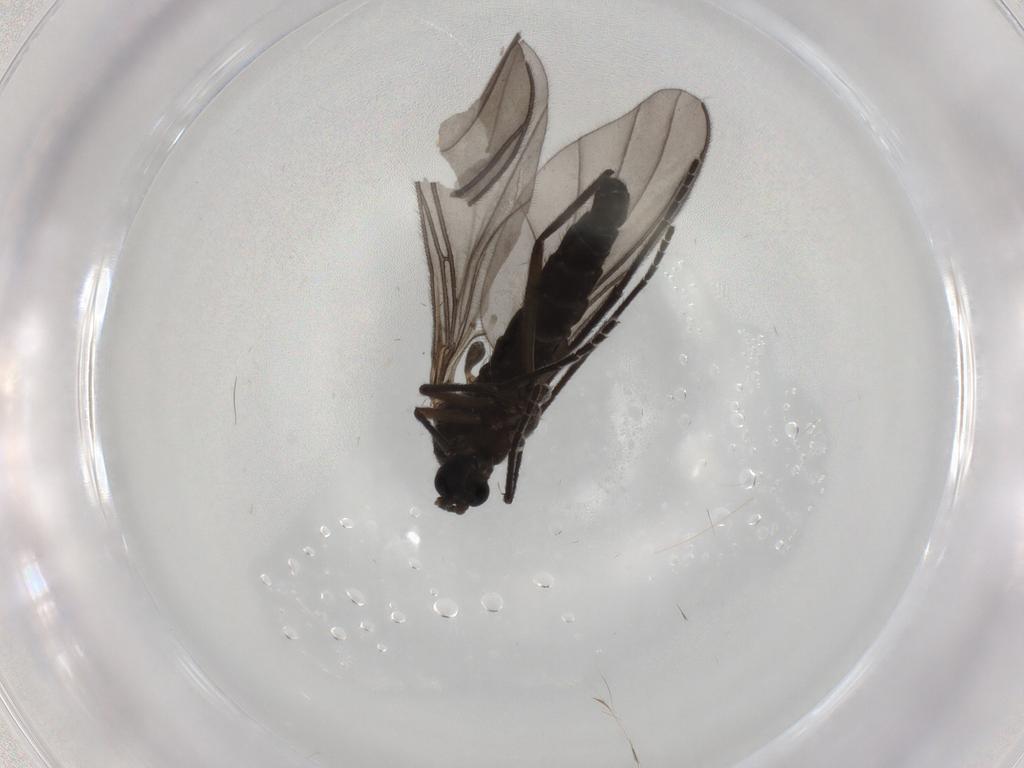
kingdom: Animalia
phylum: Arthropoda
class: Insecta
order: Diptera
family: Sciaridae
